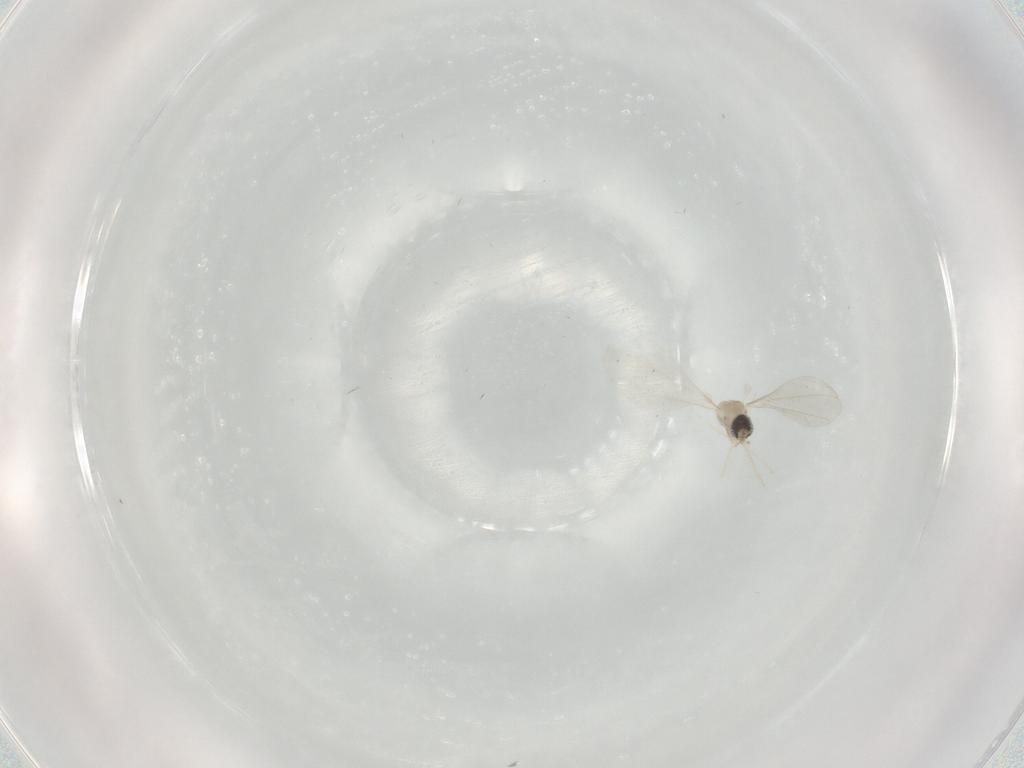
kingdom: Animalia
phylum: Arthropoda
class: Insecta
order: Diptera
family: Cecidomyiidae
